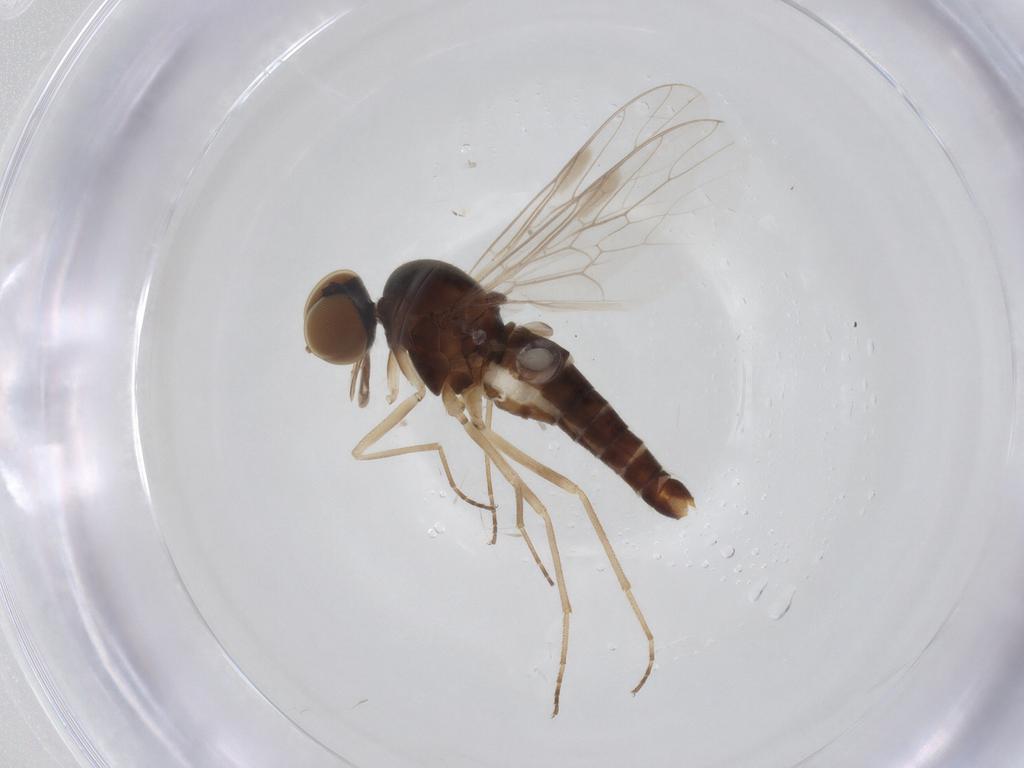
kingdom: Animalia
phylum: Arthropoda
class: Insecta
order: Diptera
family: Scenopinidae
